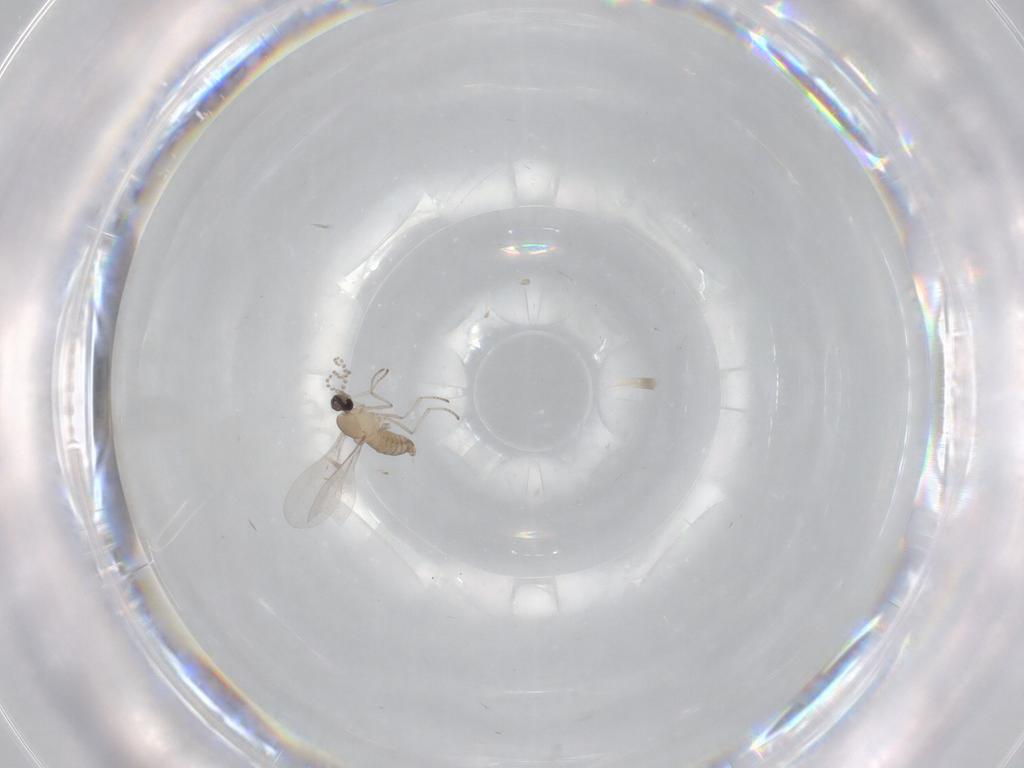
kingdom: Animalia
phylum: Arthropoda
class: Insecta
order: Diptera
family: Cecidomyiidae
